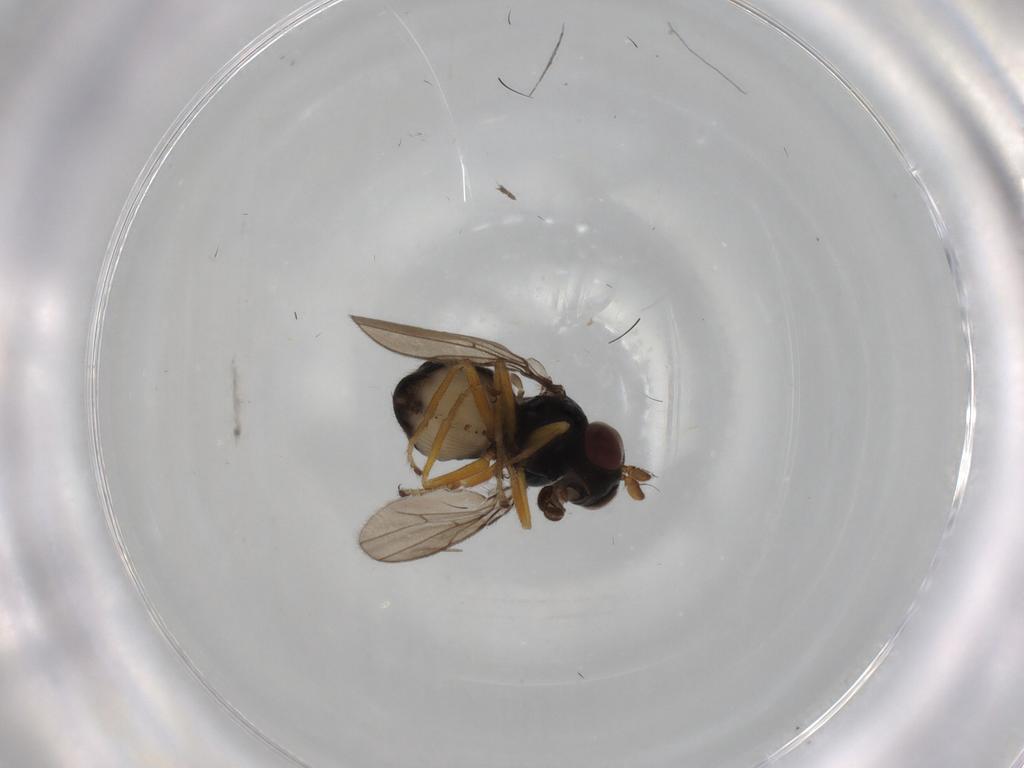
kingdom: Animalia
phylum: Arthropoda
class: Insecta
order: Diptera
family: Ephydridae
